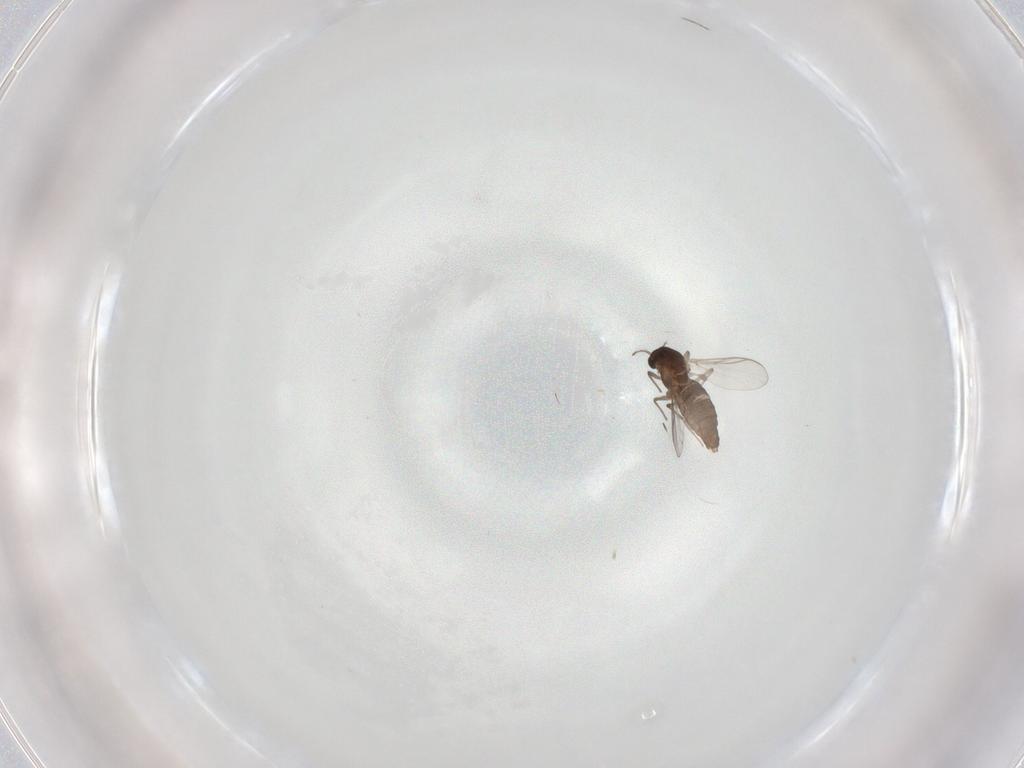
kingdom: Animalia
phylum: Arthropoda
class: Insecta
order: Diptera
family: Chironomidae
